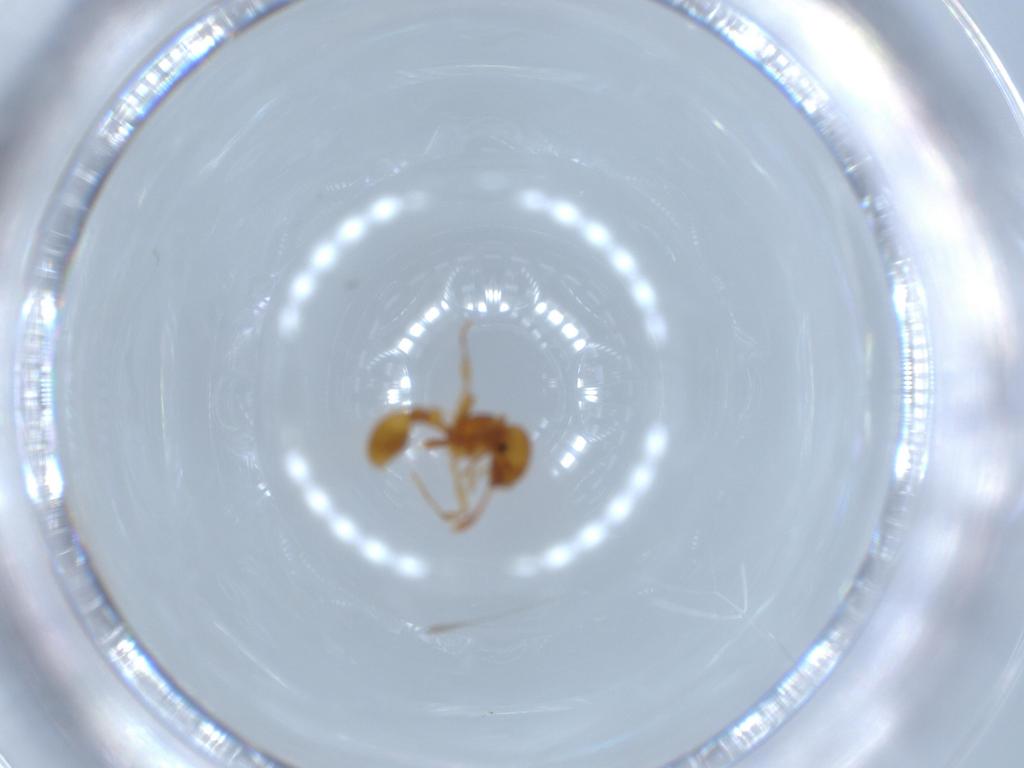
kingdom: Animalia
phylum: Arthropoda
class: Insecta
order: Hymenoptera
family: Formicidae
